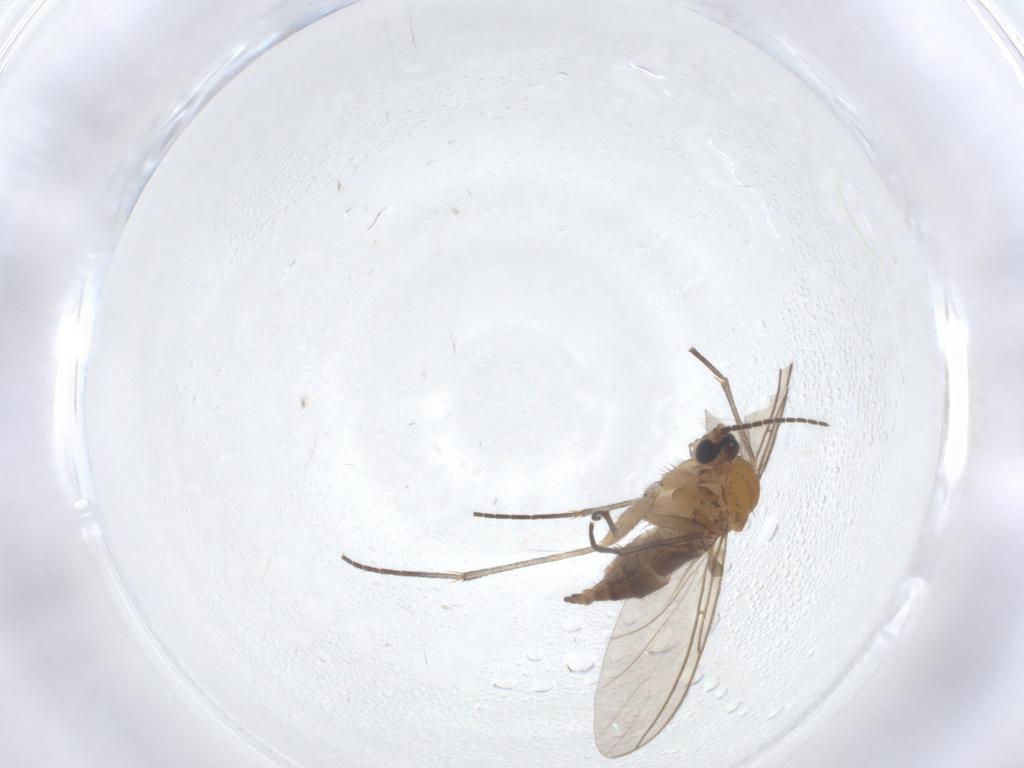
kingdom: Animalia
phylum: Arthropoda
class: Insecta
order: Diptera
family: Sciaridae
